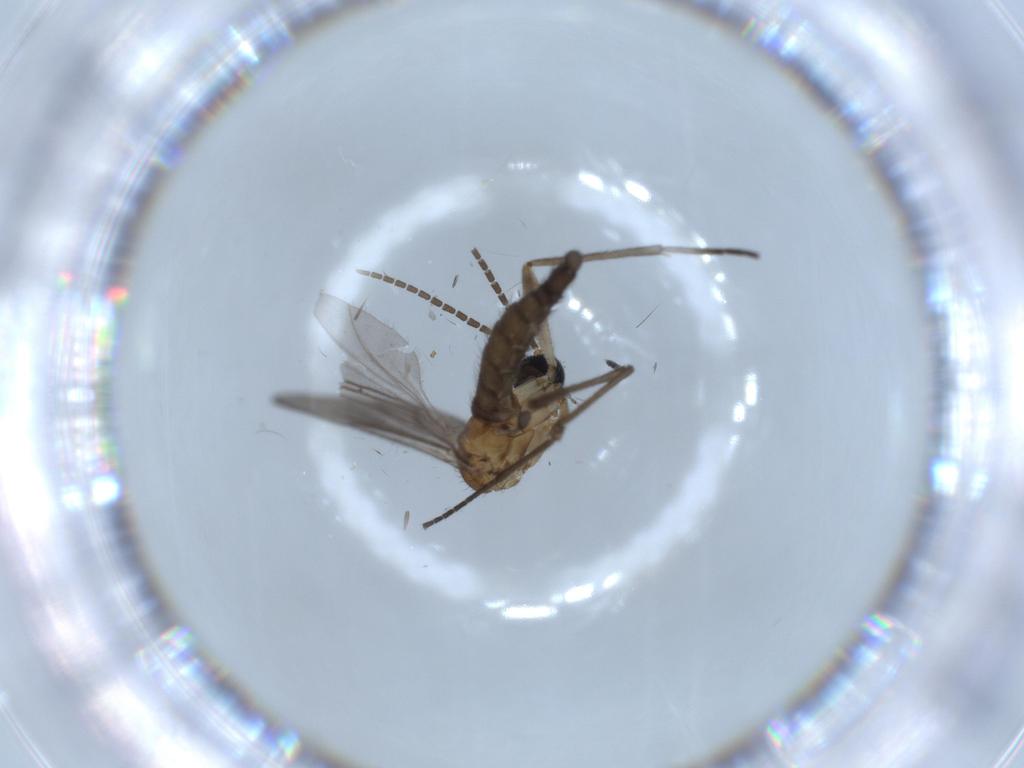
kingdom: Animalia
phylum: Arthropoda
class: Insecta
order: Diptera
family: Sciaridae
